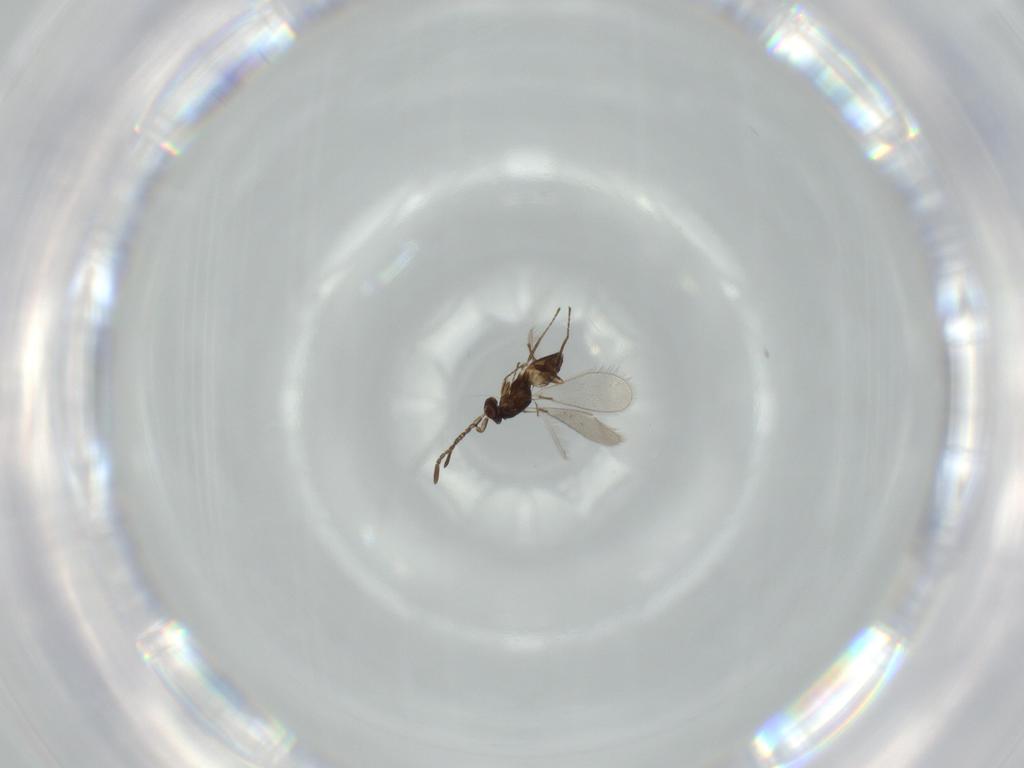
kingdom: Animalia
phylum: Arthropoda
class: Insecta
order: Hymenoptera
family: Mymaridae
